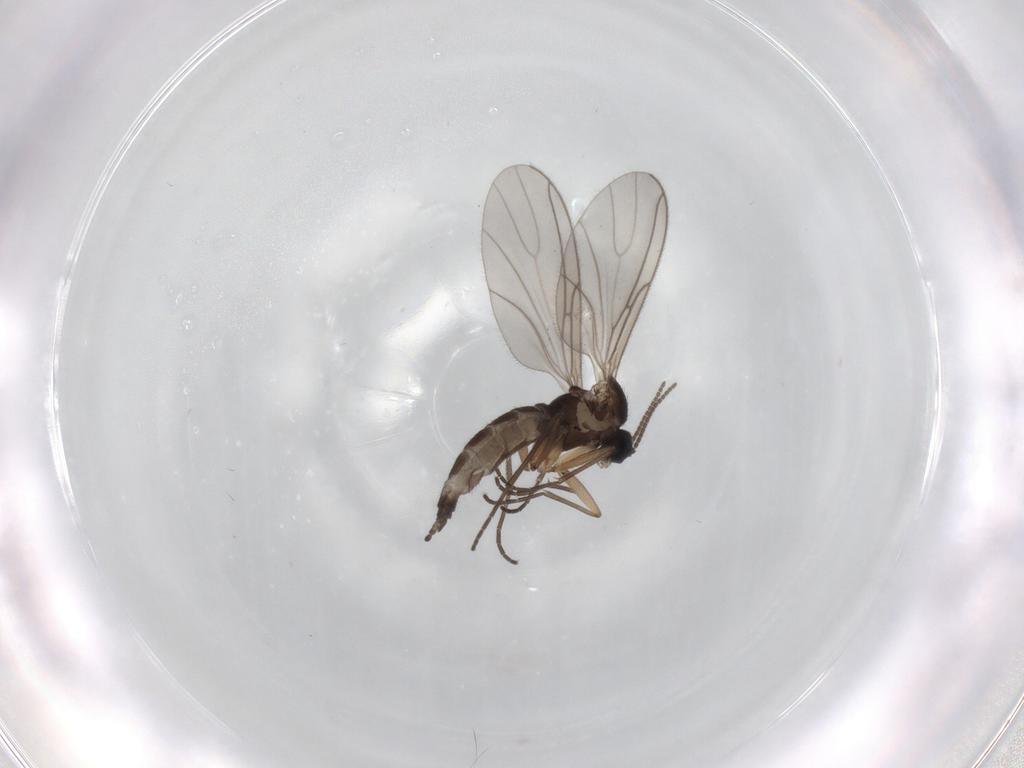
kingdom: Animalia
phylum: Arthropoda
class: Insecta
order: Diptera
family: Sciaridae
